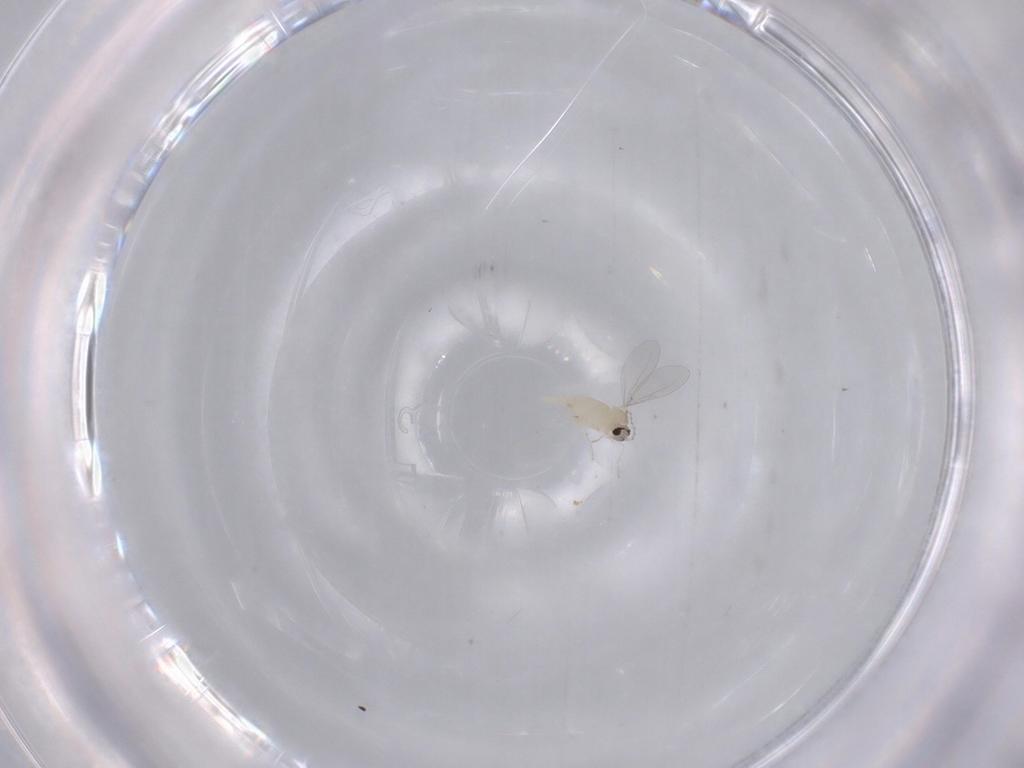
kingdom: Animalia
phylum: Arthropoda
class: Insecta
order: Diptera
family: Cecidomyiidae
